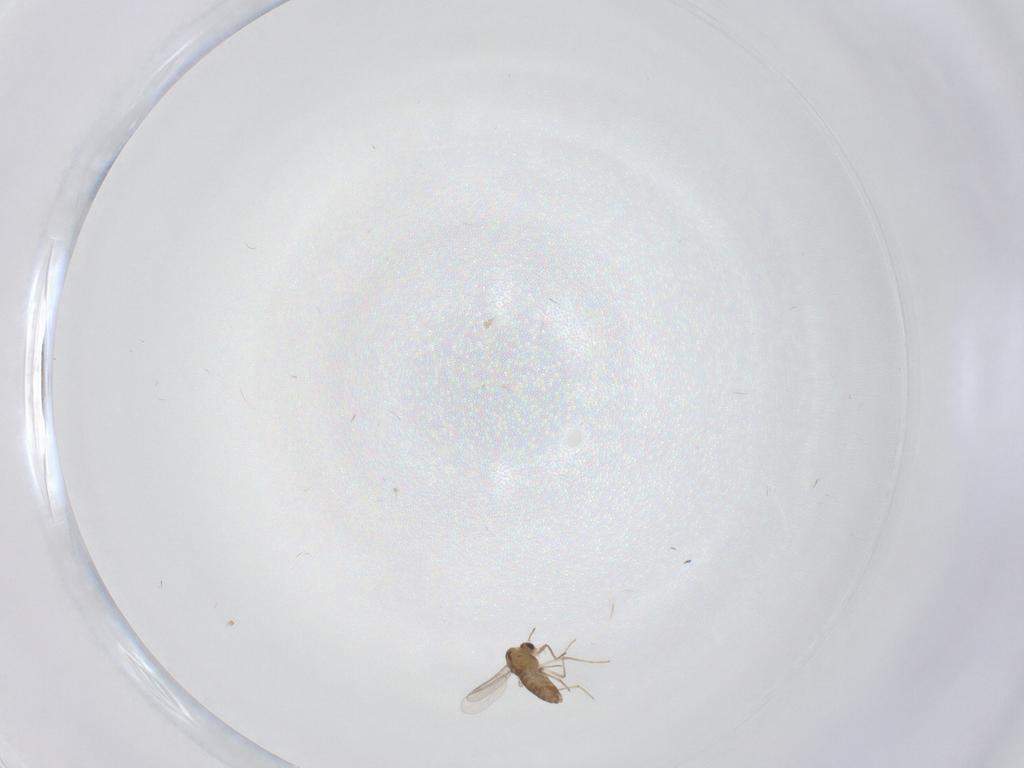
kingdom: Animalia
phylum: Arthropoda
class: Insecta
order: Diptera
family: Chironomidae
